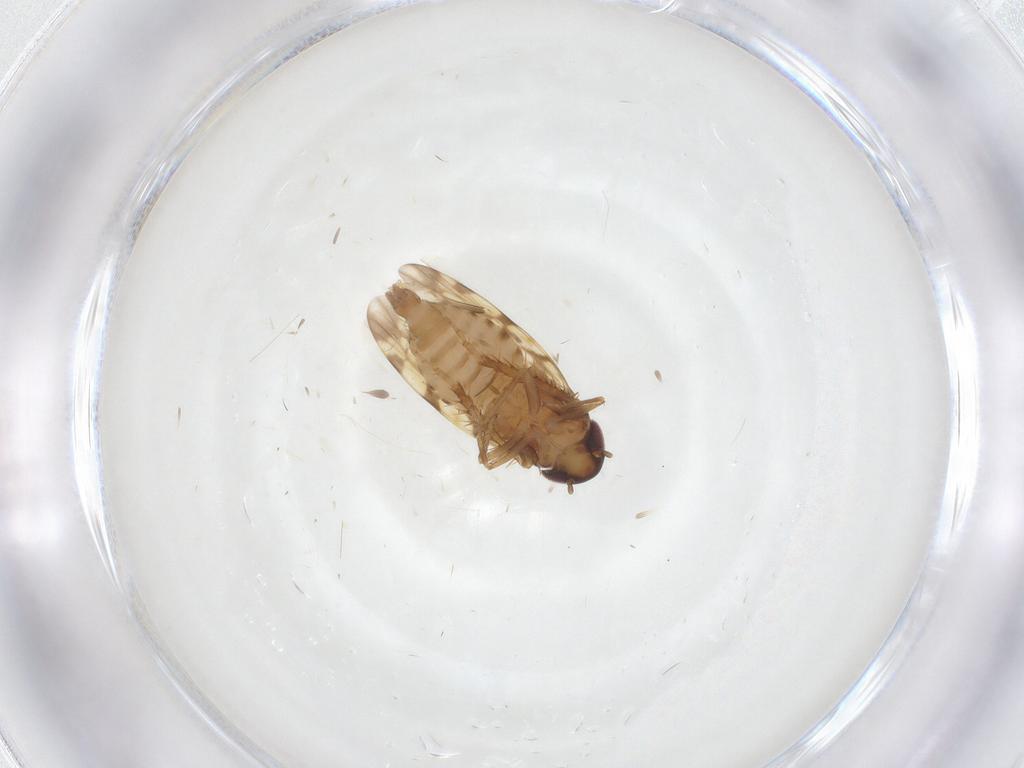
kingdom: Animalia
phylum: Arthropoda
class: Insecta
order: Hemiptera
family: Cicadellidae
